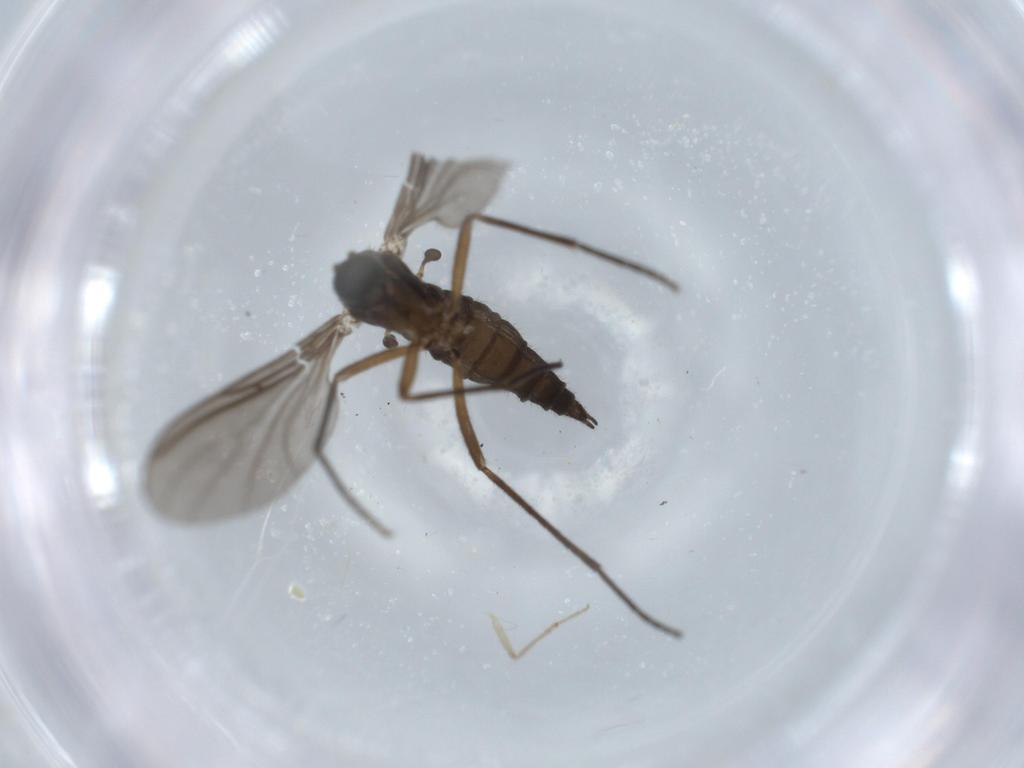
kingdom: Animalia
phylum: Arthropoda
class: Insecta
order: Diptera
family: Sciaridae
